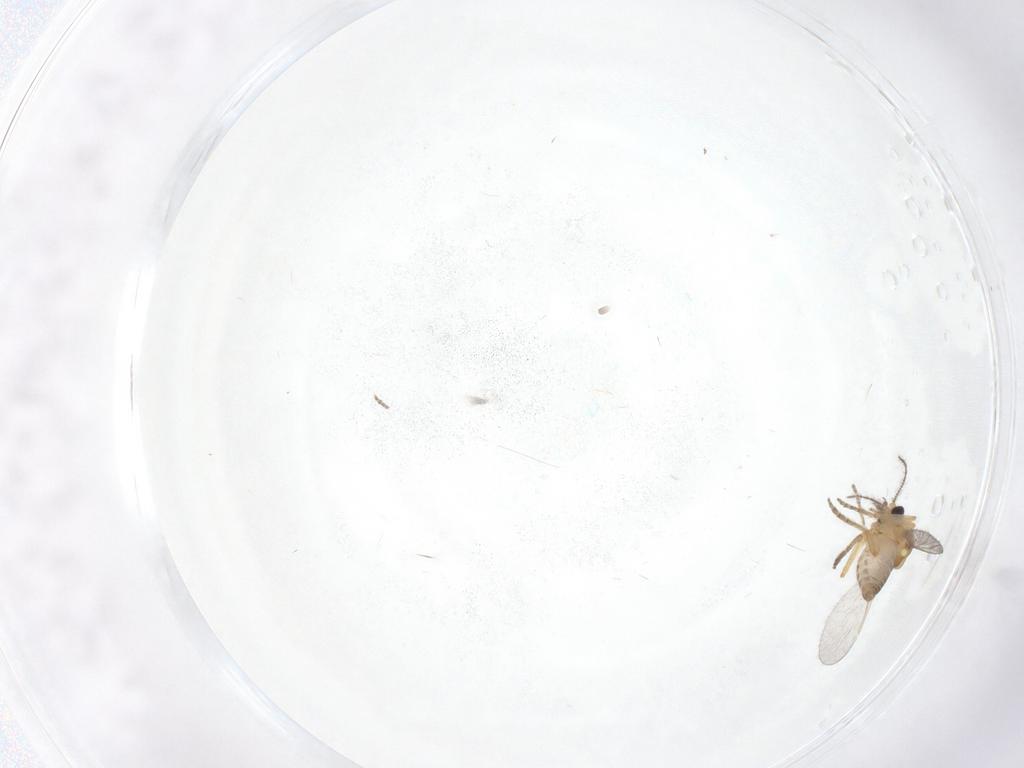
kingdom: Animalia
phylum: Arthropoda
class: Insecta
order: Diptera
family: Ceratopogonidae
